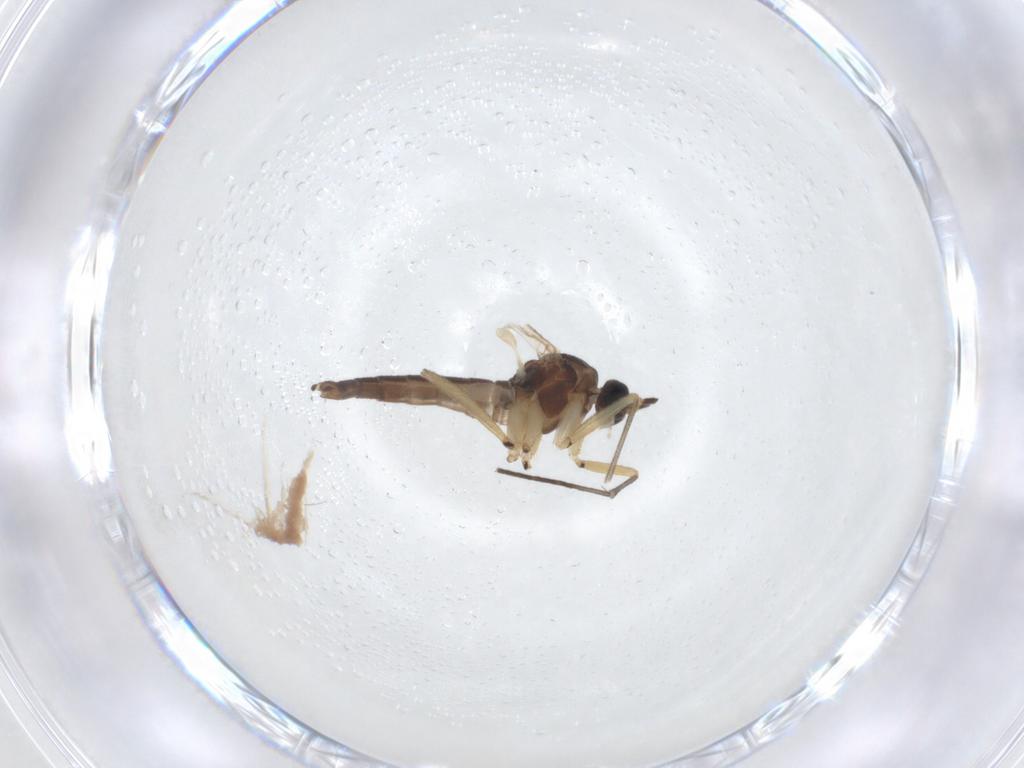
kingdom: Animalia
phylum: Arthropoda
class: Insecta
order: Diptera
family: Sciaridae
